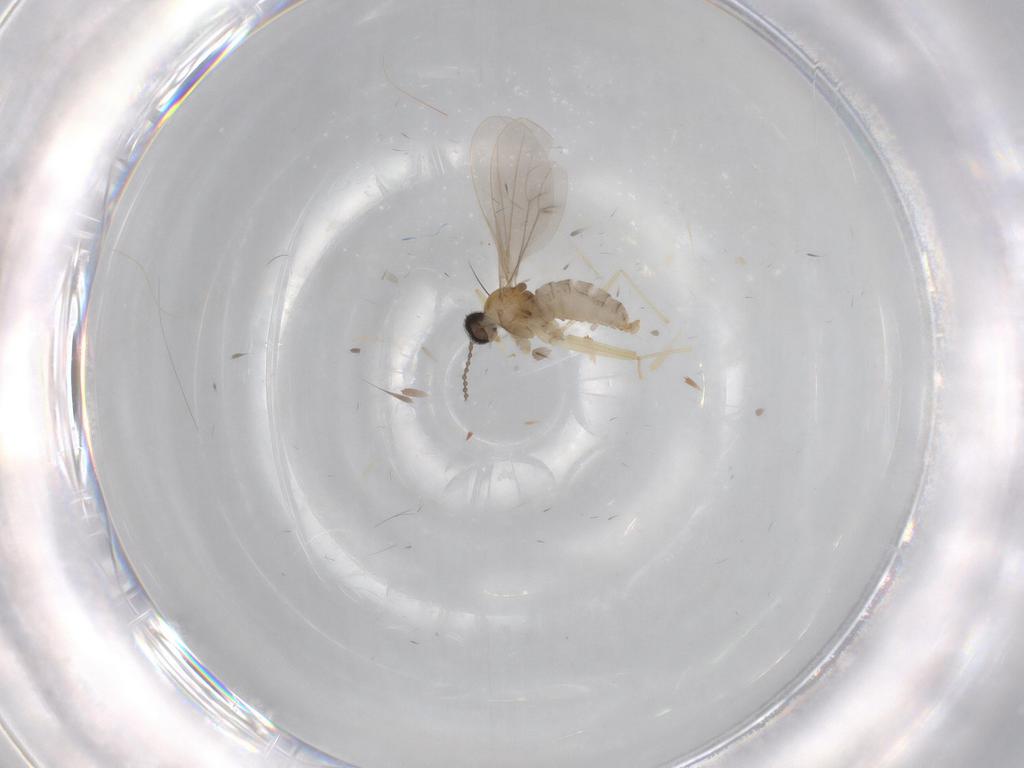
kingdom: Animalia
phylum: Arthropoda
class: Insecta
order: Diptera
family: Cecidomyiidae
